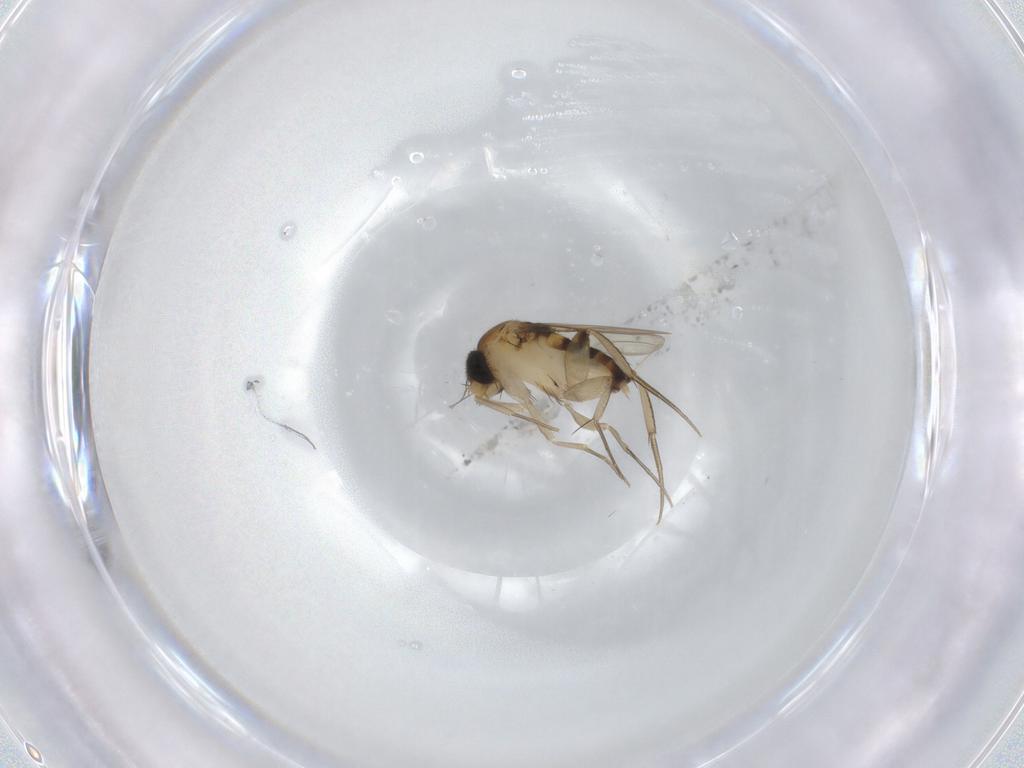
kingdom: Animalia
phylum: Arthropoda
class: Insecta
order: Diptera
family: Phoridae
